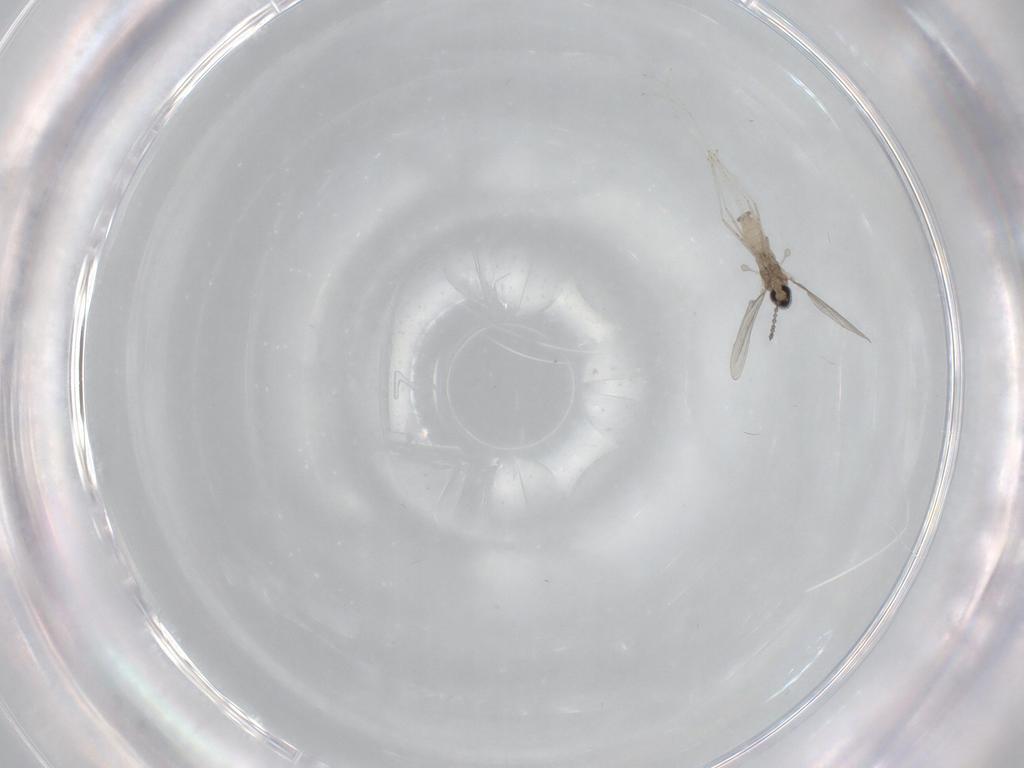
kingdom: Animalia
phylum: Arthropoda
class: Insecta
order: Diptera
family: Cecidomyiidae
